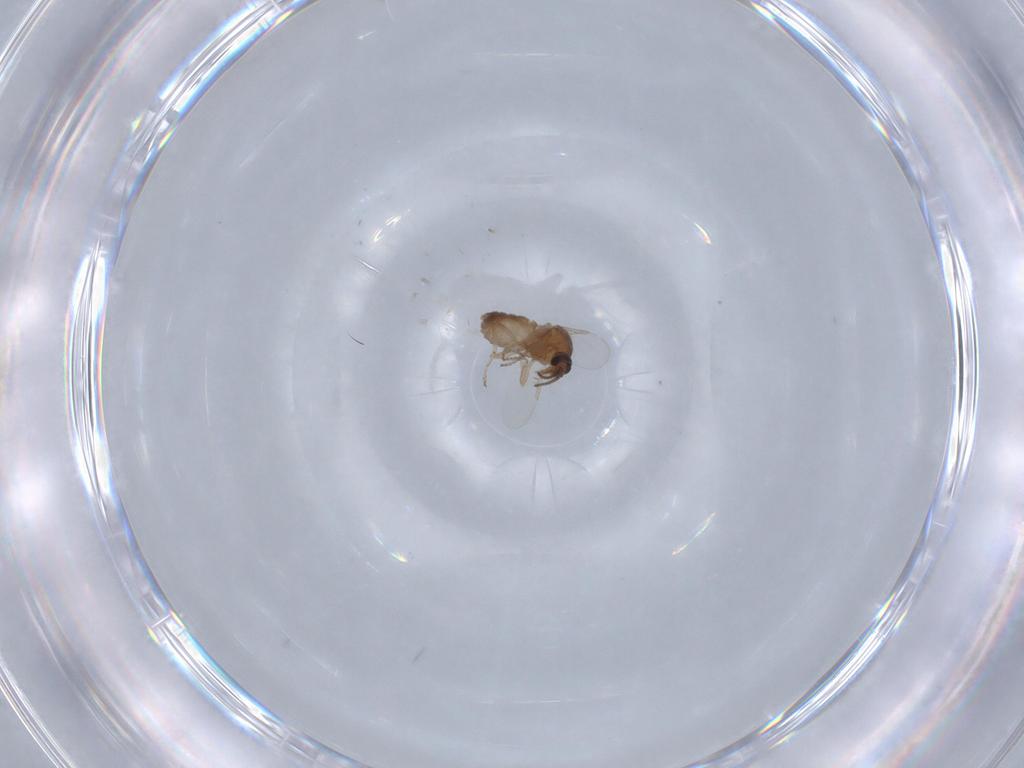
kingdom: Animalia
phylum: Arthropoda
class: Insecta
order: Diptera
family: Ceratopogonidae
